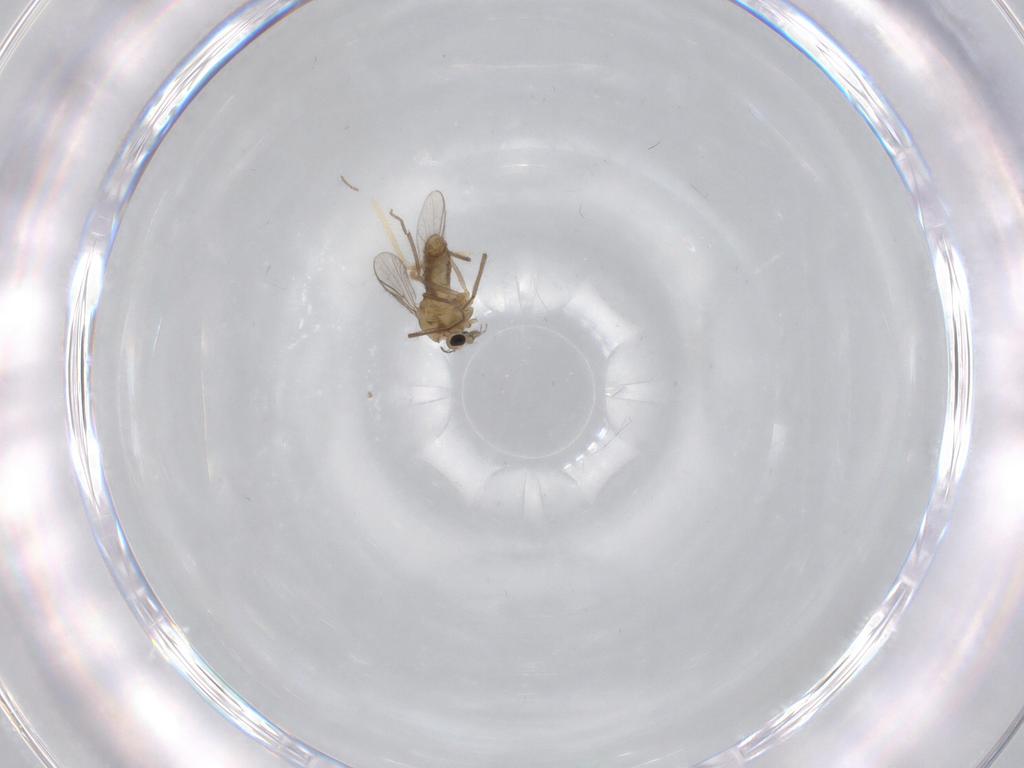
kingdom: Animalia
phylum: Arthropoda
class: Insecta
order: Diptera
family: Chironomidae
